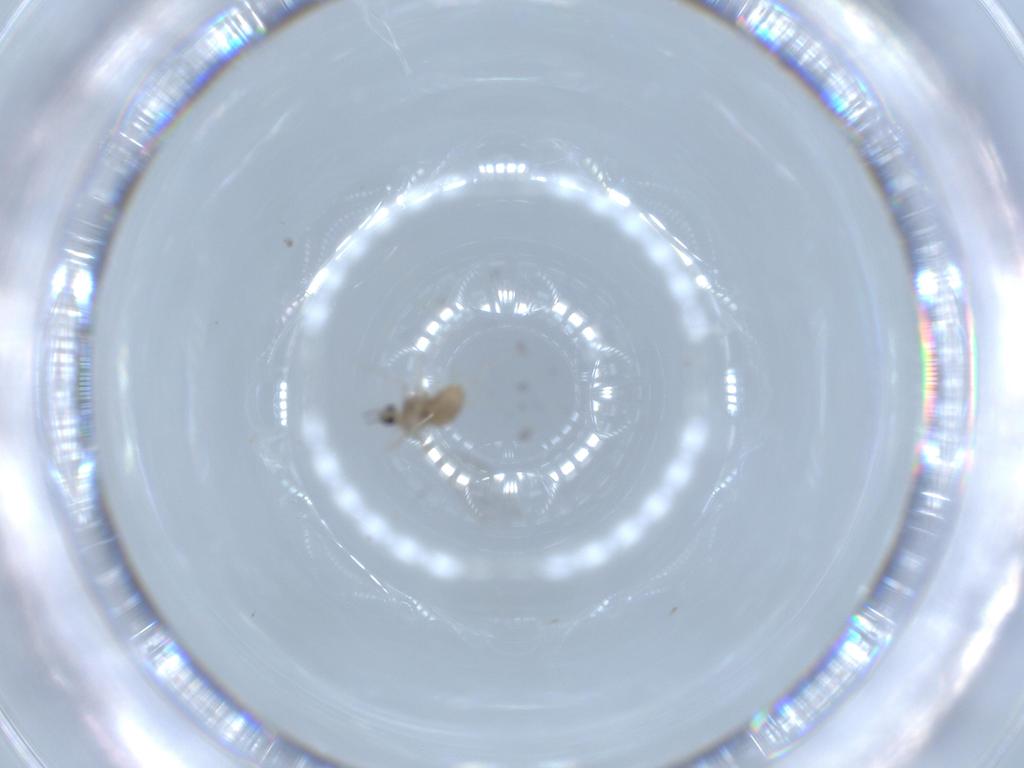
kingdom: Animalia
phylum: Arthropoda
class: Insecta
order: Diptera
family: Cecidomyiidae
